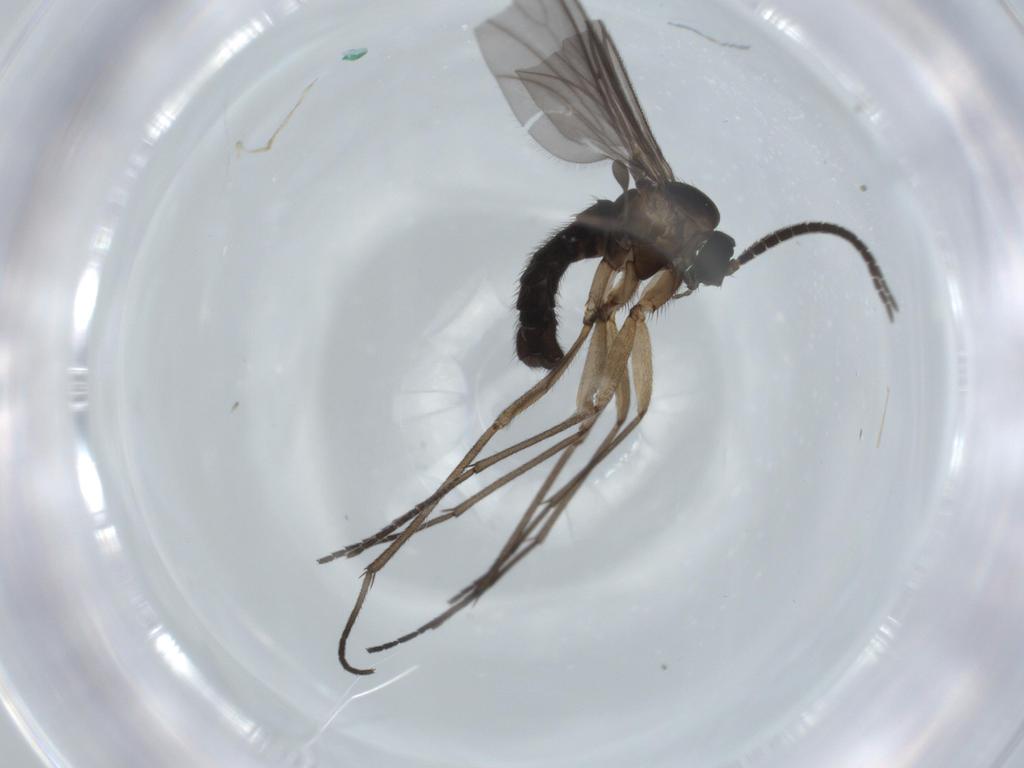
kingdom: Animalia
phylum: Arthropoda
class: Insecta
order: Diptera
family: Sciaridae
